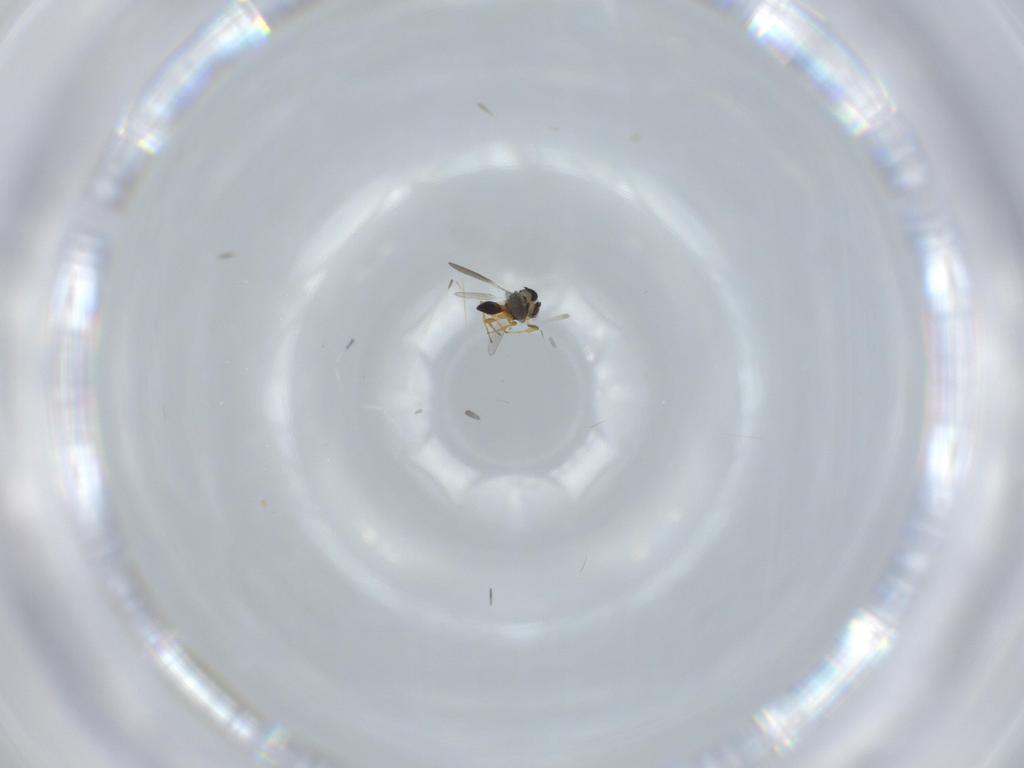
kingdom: Animalia
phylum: Arthropoda
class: Insecta
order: Hymenoptera
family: Platygastridae
